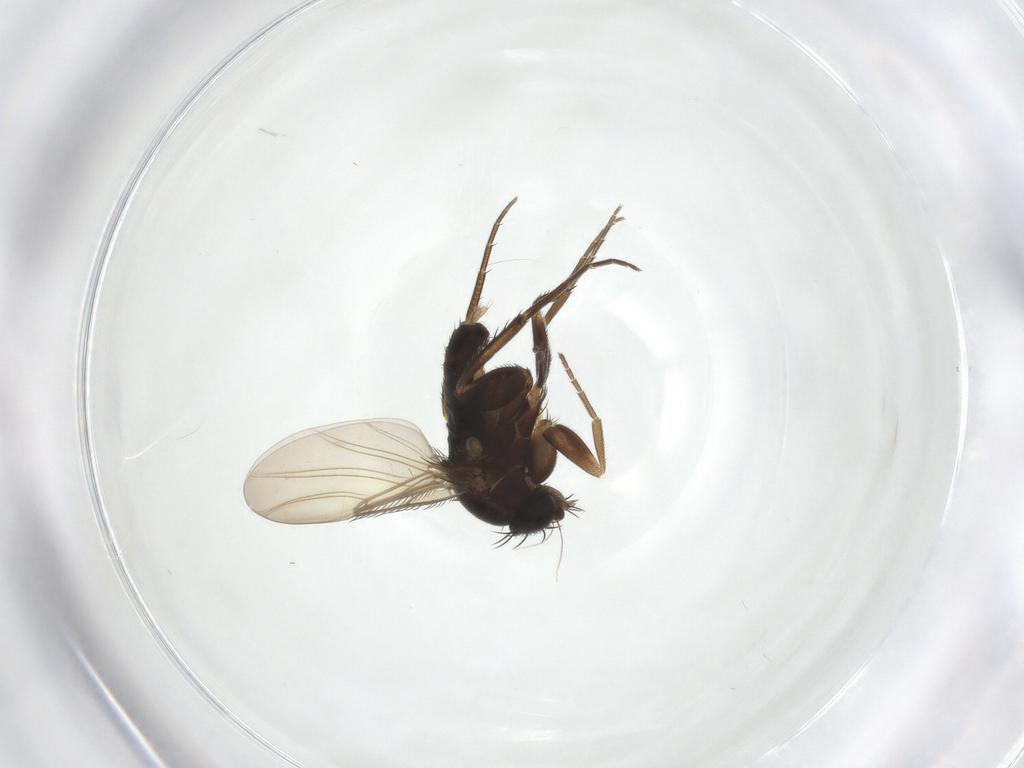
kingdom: Animalia
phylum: Arthropoda
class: Insecta
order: Diptera
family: Phoridae
